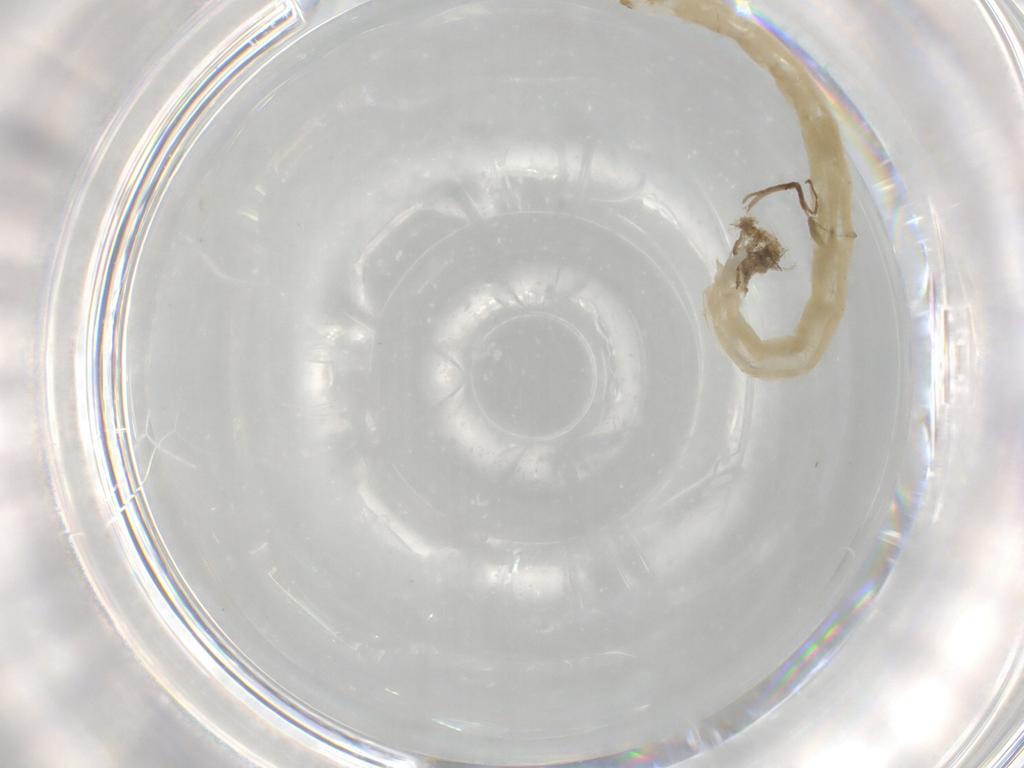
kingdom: Animalia
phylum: Arthropoda
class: Insecta
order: Diptera
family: Chironomidae
